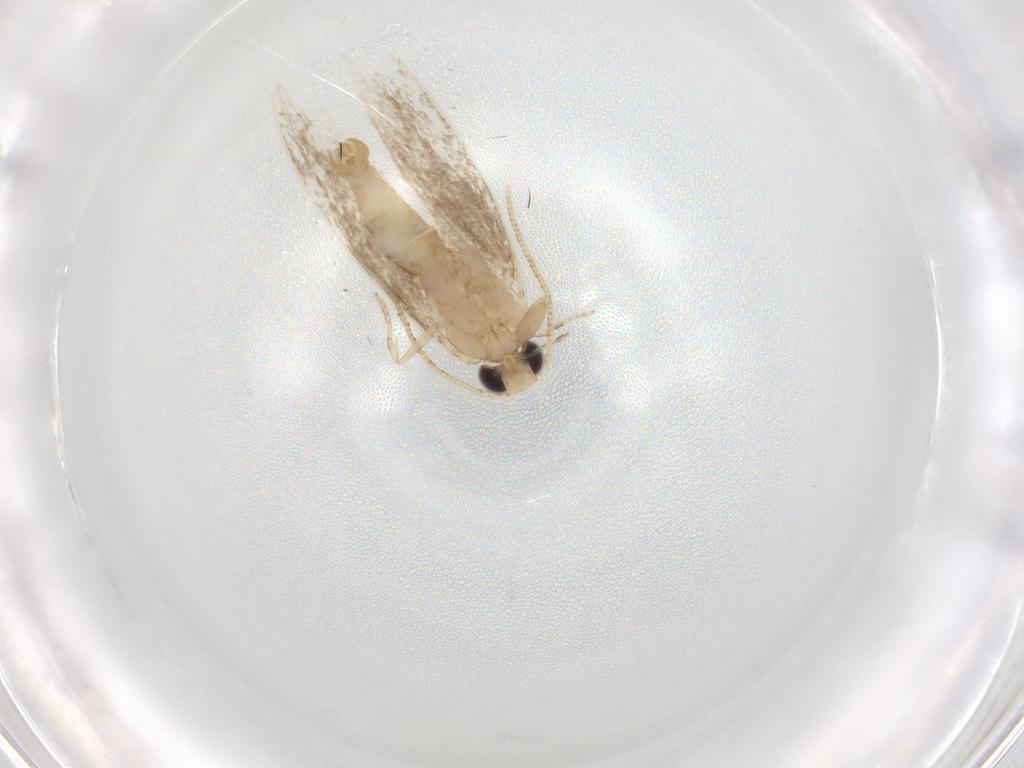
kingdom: Animalia
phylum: Arthropoda
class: Insecta
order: Lepidoptera
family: Tineidae
